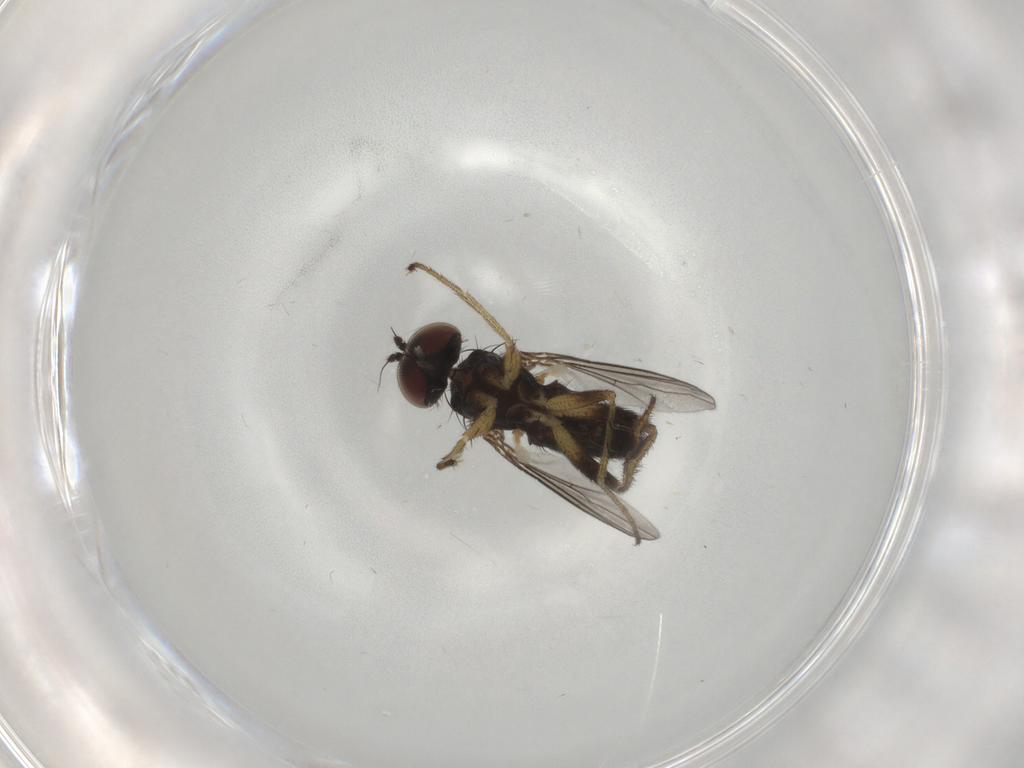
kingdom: Animalia
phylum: Arthropoda
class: Insecta
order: Diptera
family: Dolichopodidae
